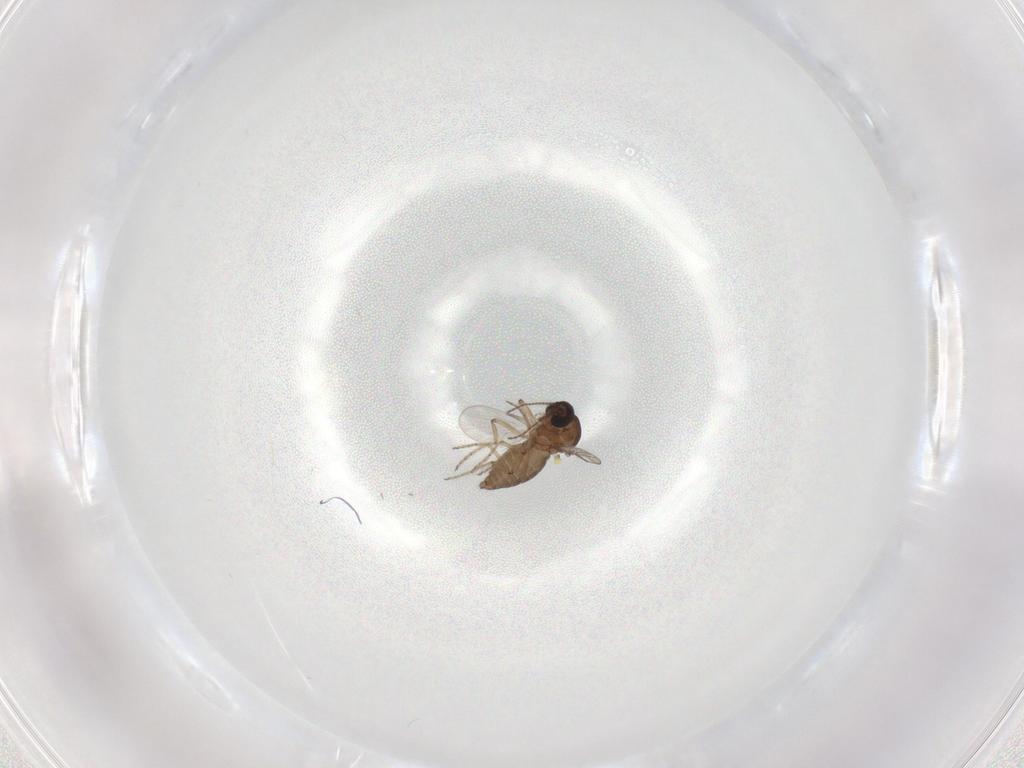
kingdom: Animalia
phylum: Arthropoda
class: Insecta
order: Diptera
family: Ceratopogonidae
